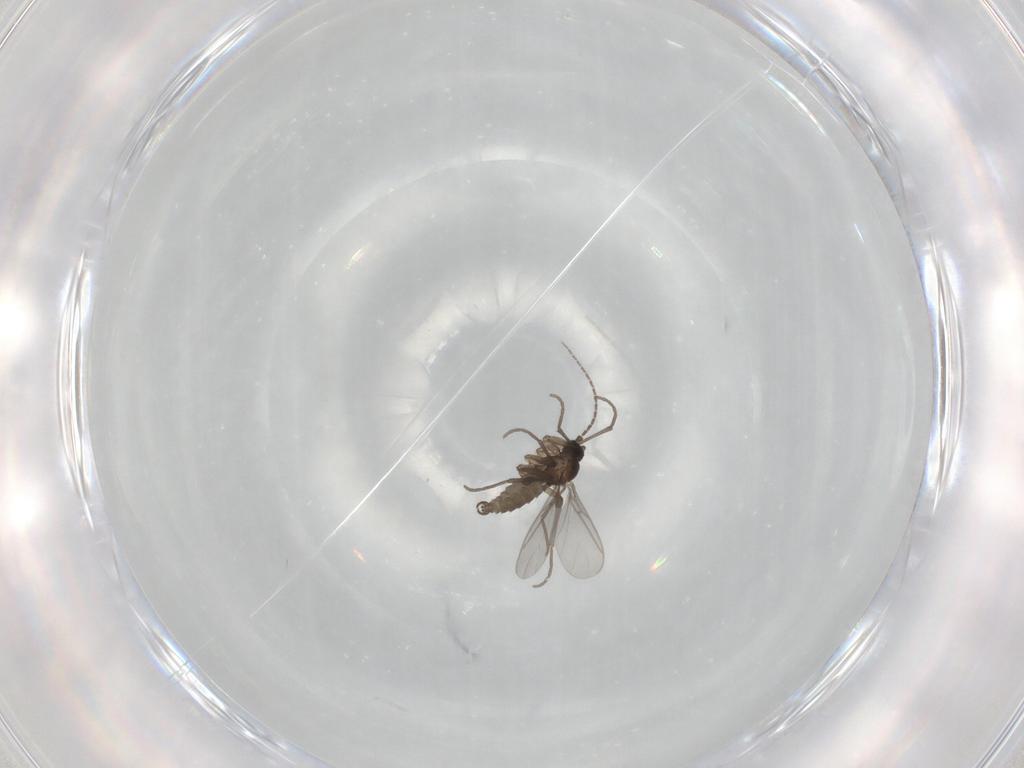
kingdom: Animalia
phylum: Arthropoda
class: Insecta
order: Diptera
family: Sciaridae
